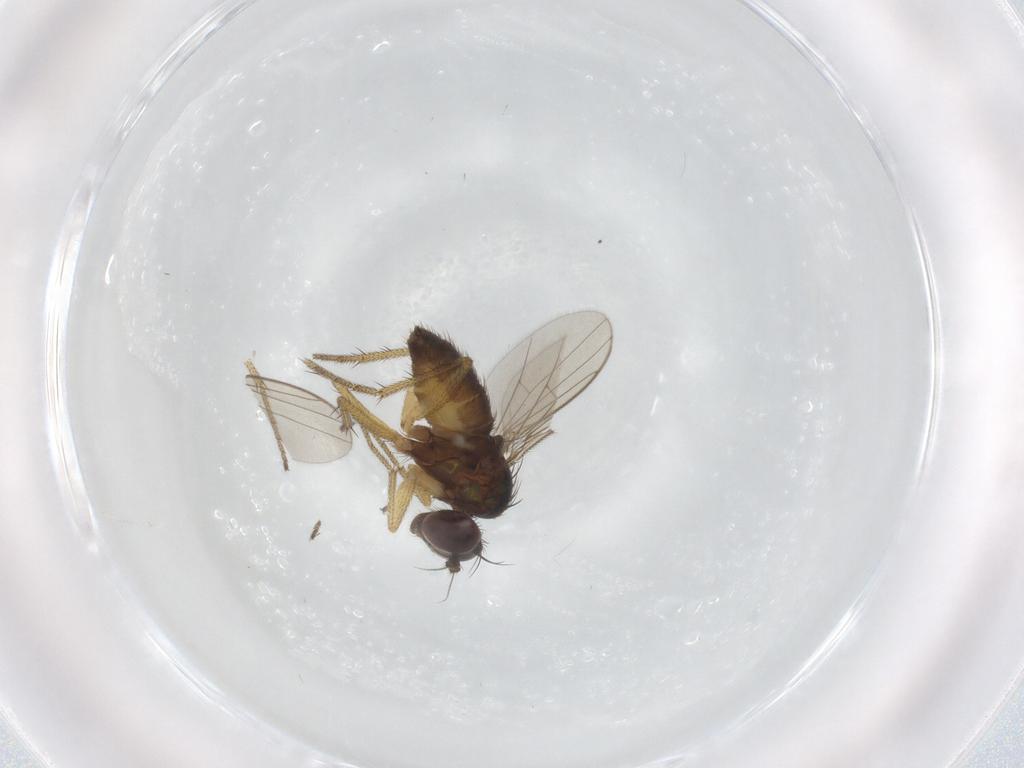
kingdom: Animalia
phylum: Arthropoda
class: Insecta
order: Diptera
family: Dolichopodidae
